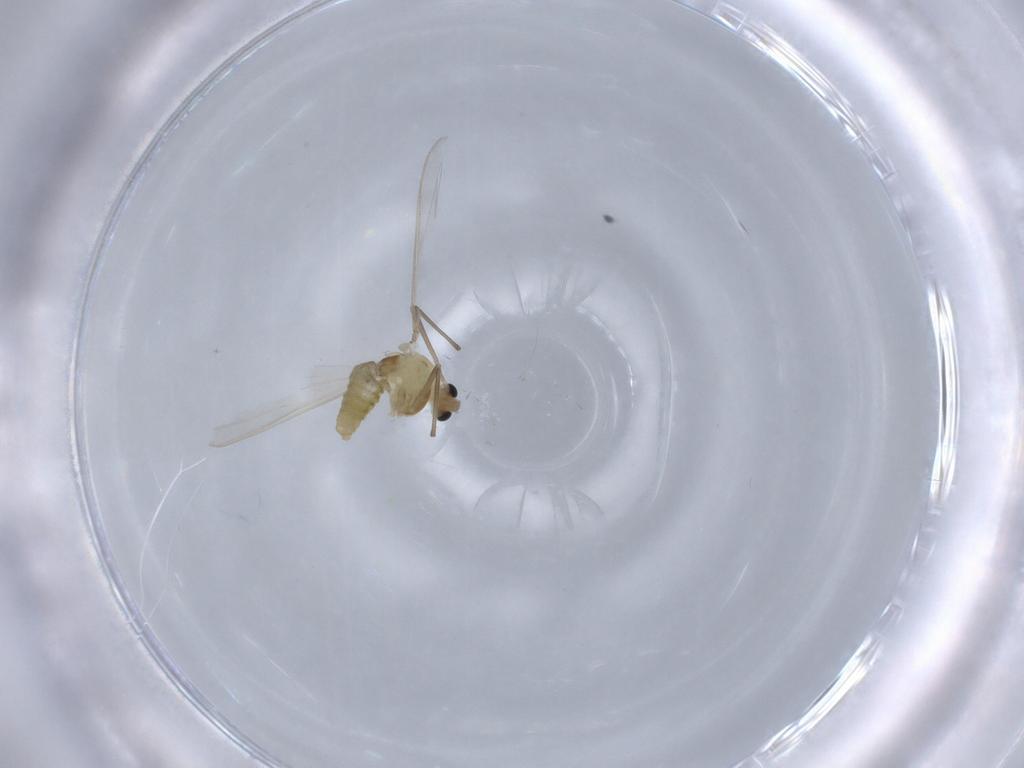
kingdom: Animalia
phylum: Arthropoda
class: Insecta
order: Diptera
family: Chironomidae
